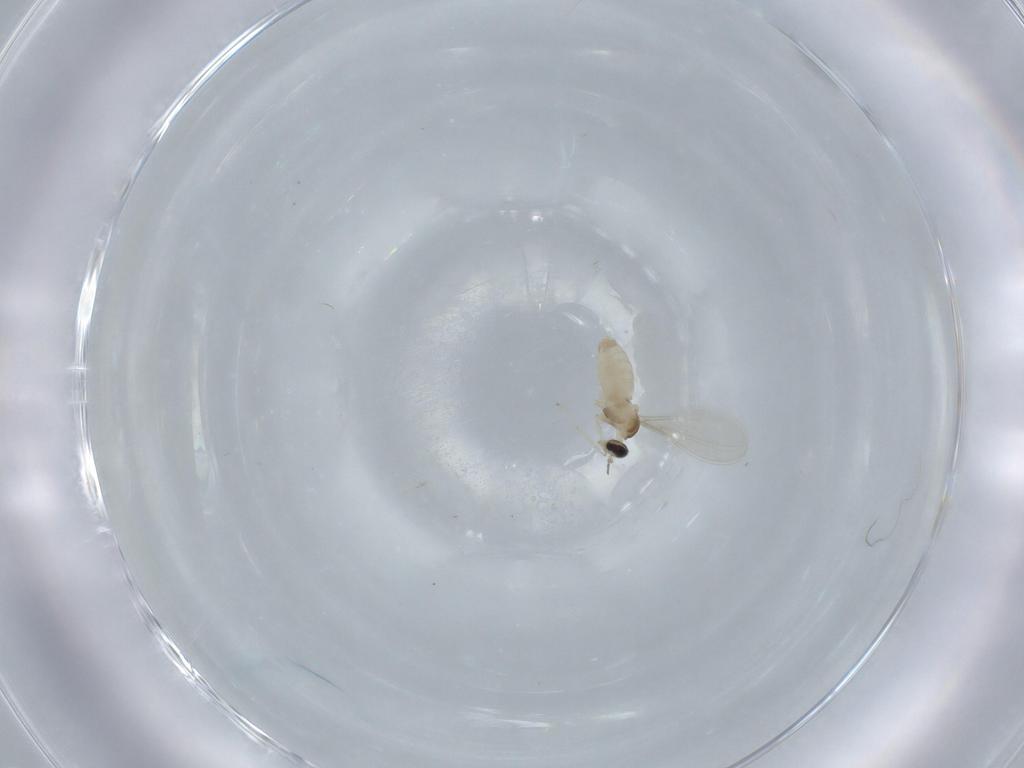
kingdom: Animalia
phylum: Arthropoda
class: Insecta
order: Diptera
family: Cecidomyiidae
